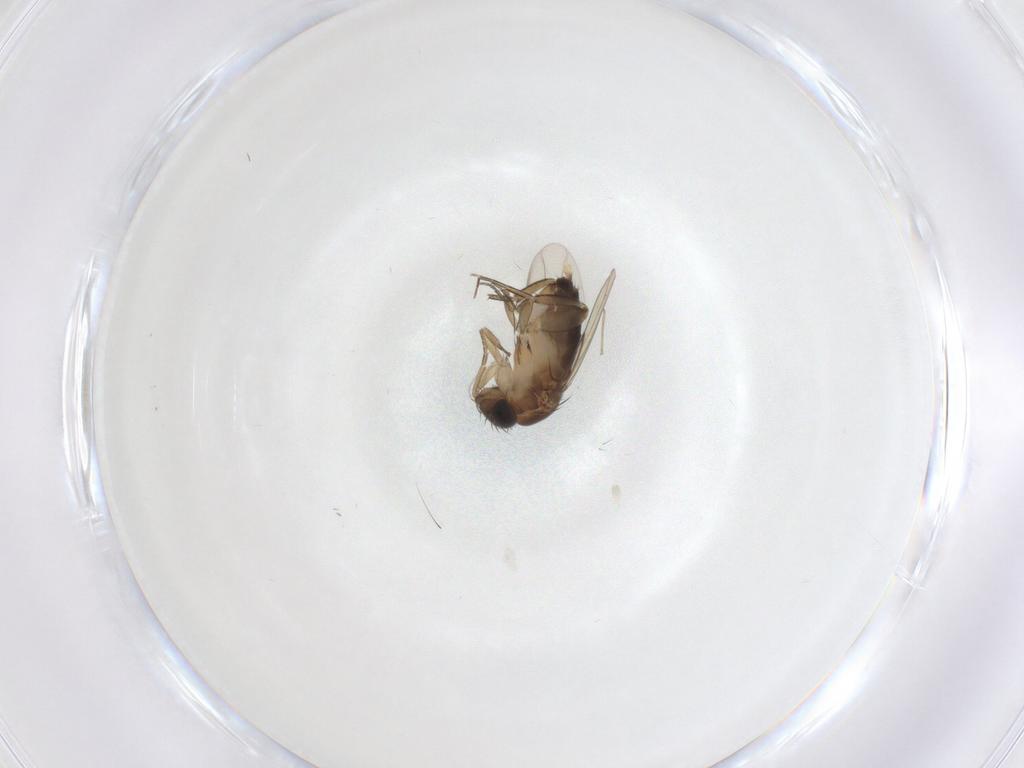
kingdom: Animalia
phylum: Arthropoda
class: Insecta
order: Diptera
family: Phoridae
